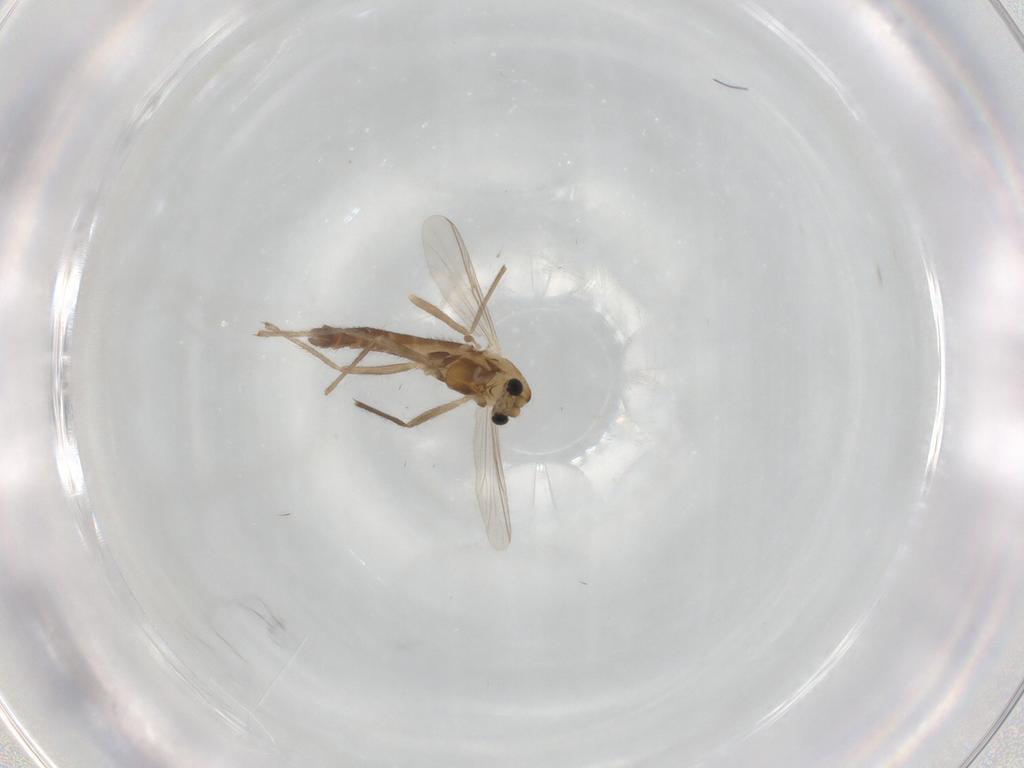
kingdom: Animalia
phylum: Arthropoda
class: Insecta
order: Diptera
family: Chironomidae
